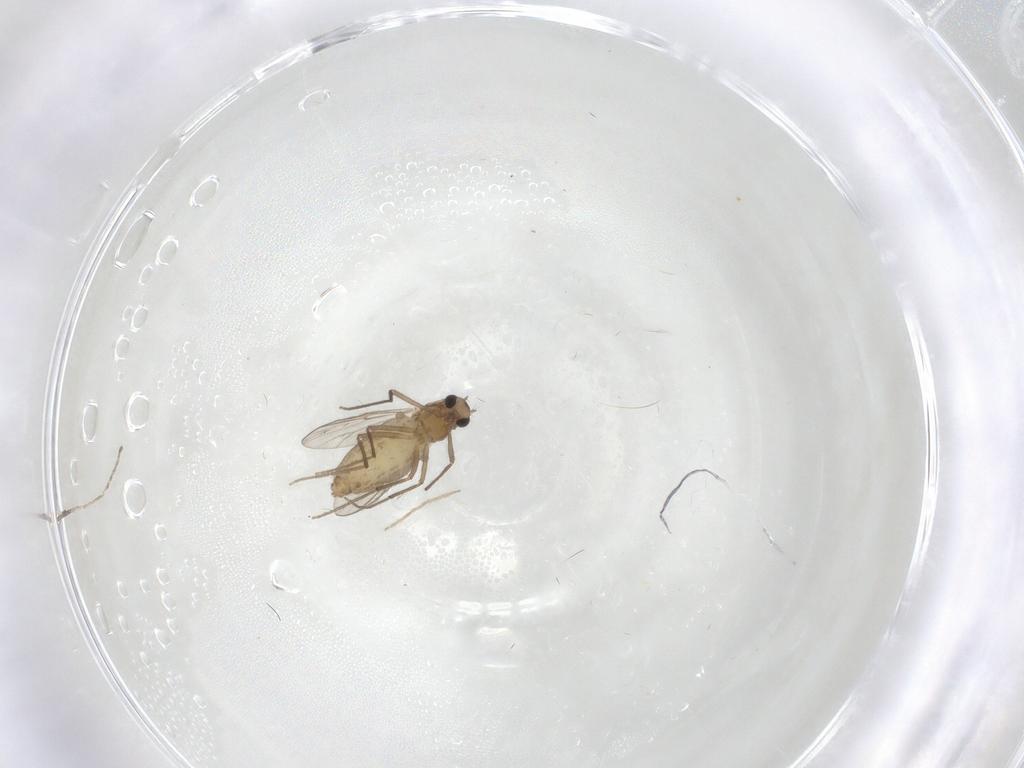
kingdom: Animalia
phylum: Arthropoda
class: Insecta
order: Diptera
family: Chironomidae
